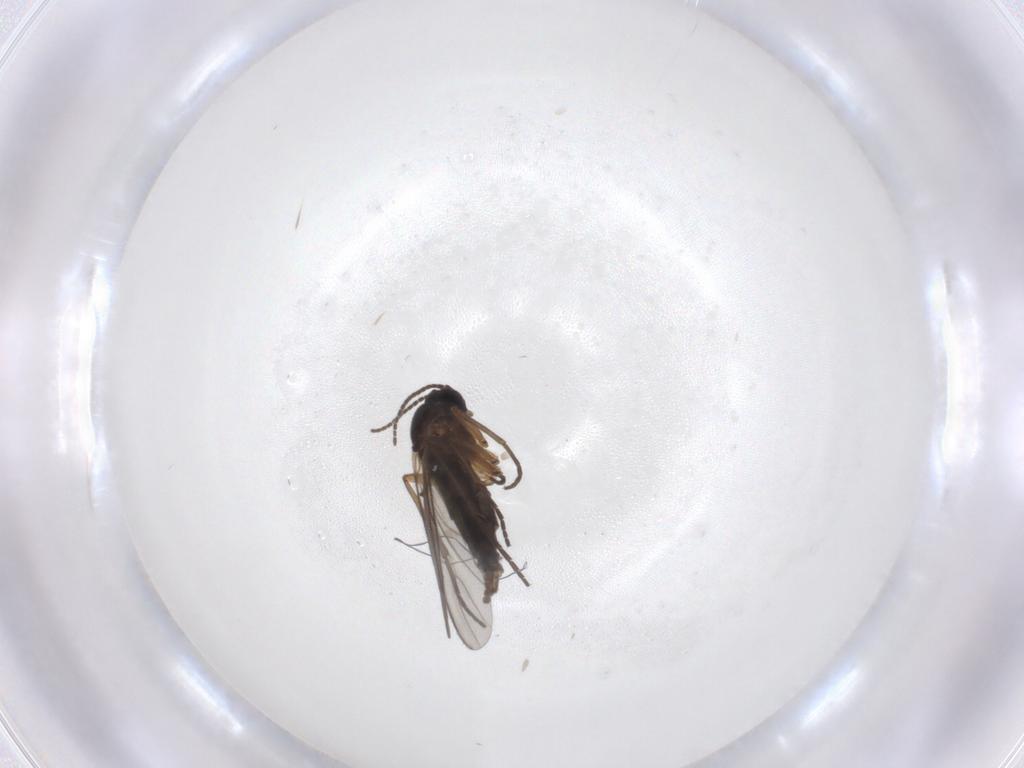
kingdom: Animalia
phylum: Arthropoda
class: Insecta
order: Diptera
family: Sciaridae
